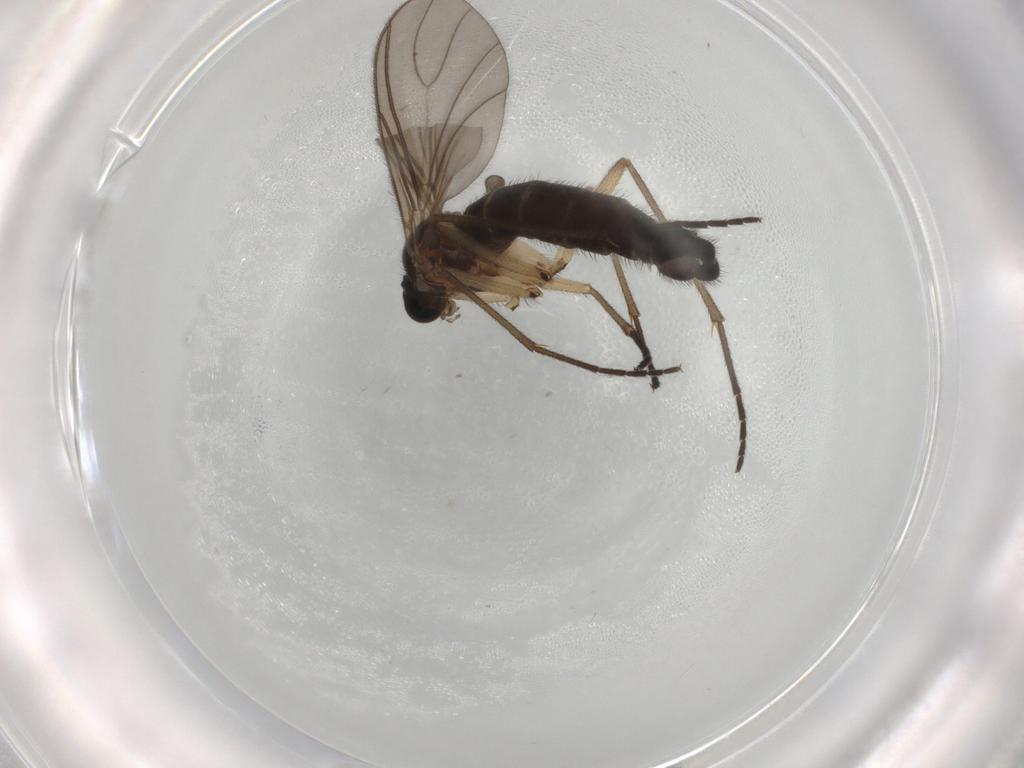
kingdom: Animalia
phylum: Arthropoda
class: Insecta
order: Diptera
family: Sciaridae
